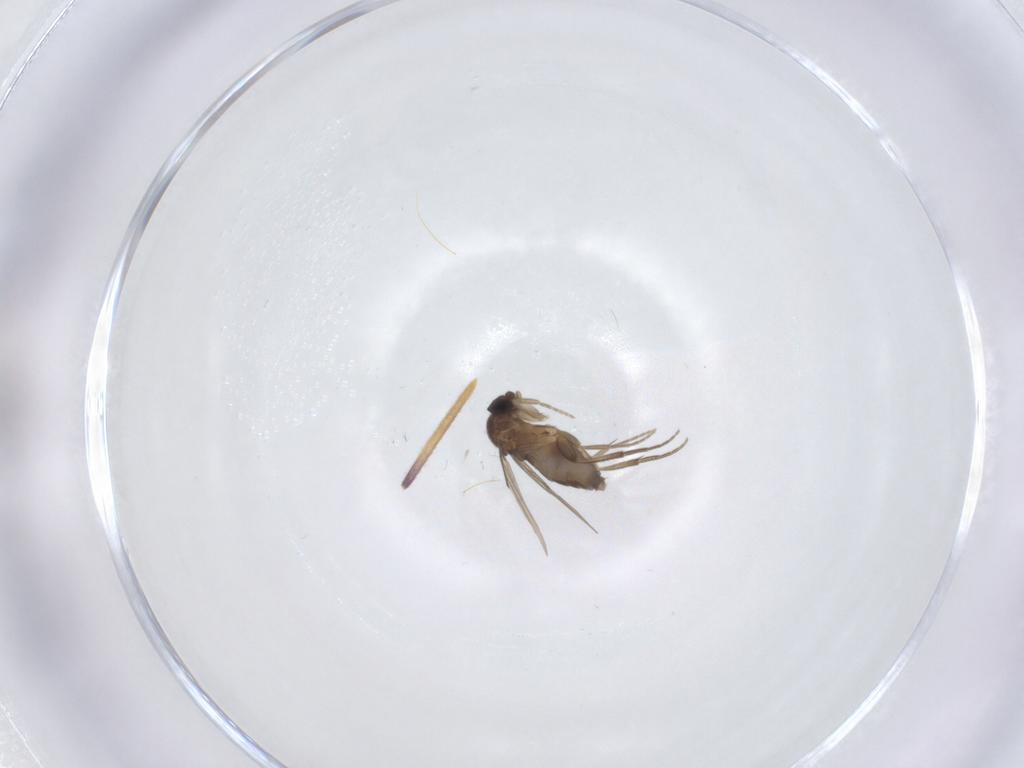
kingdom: Animalia
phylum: Arthropoda
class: Insecta
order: Diptera
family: Phoridae
